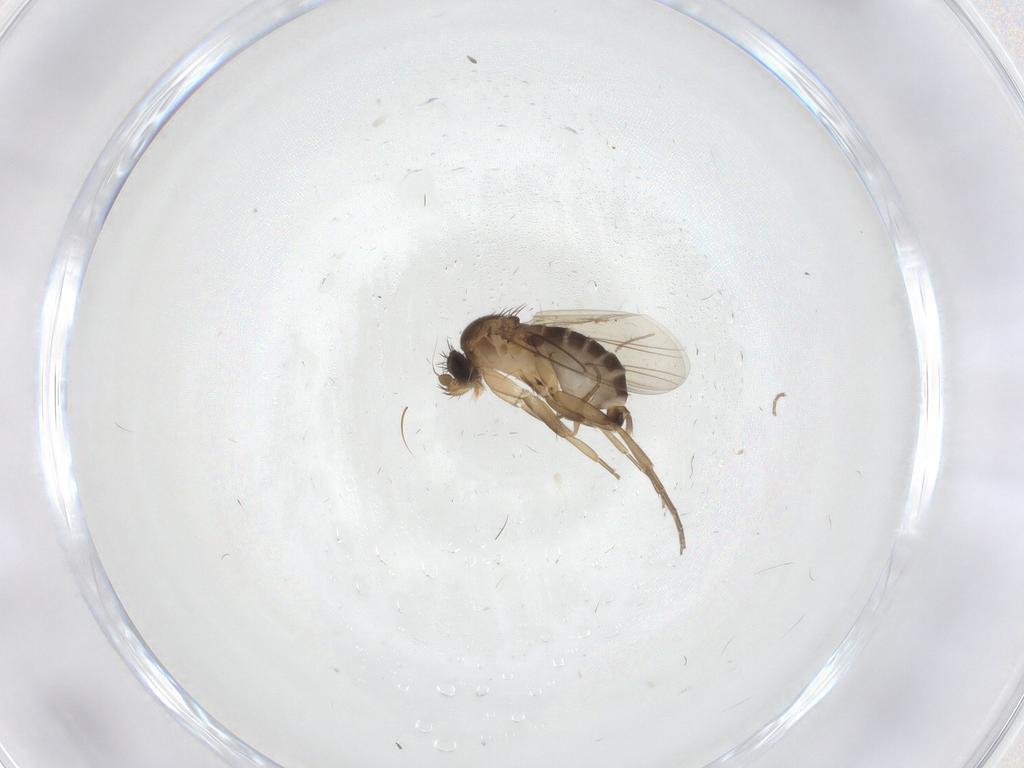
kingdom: Animalia
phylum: Arthropoda
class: Insecta
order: Diptera
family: Phoridae
